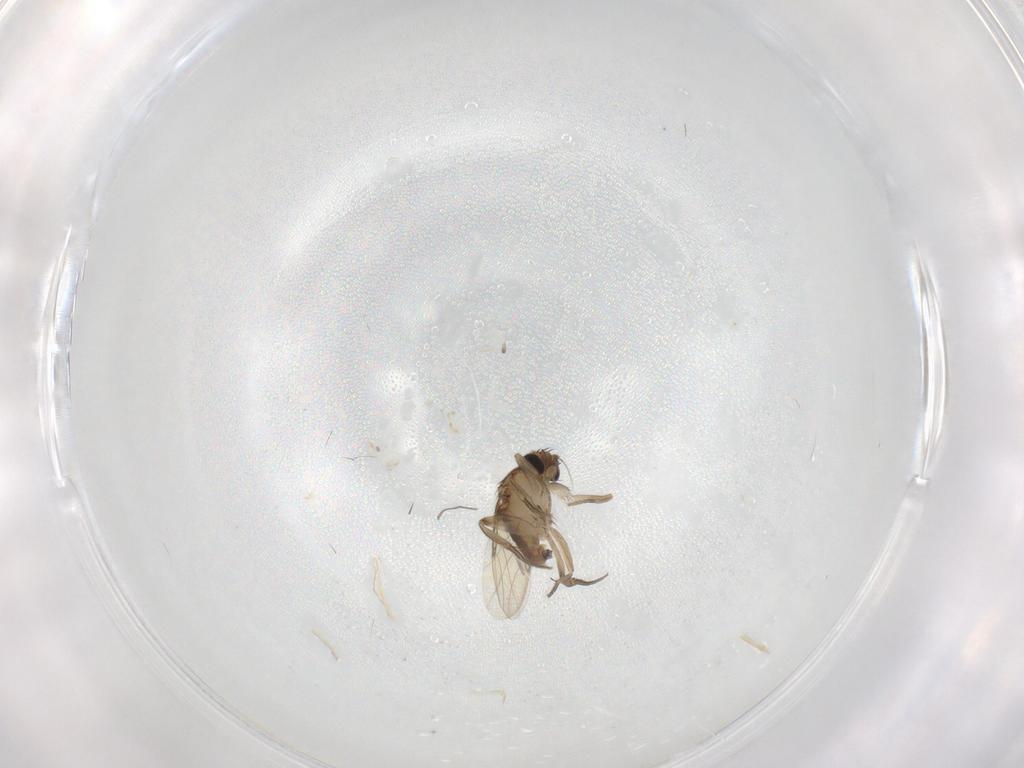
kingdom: Animalia
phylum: Arthropoda
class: Insecta
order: Diptera
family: Phoridae
